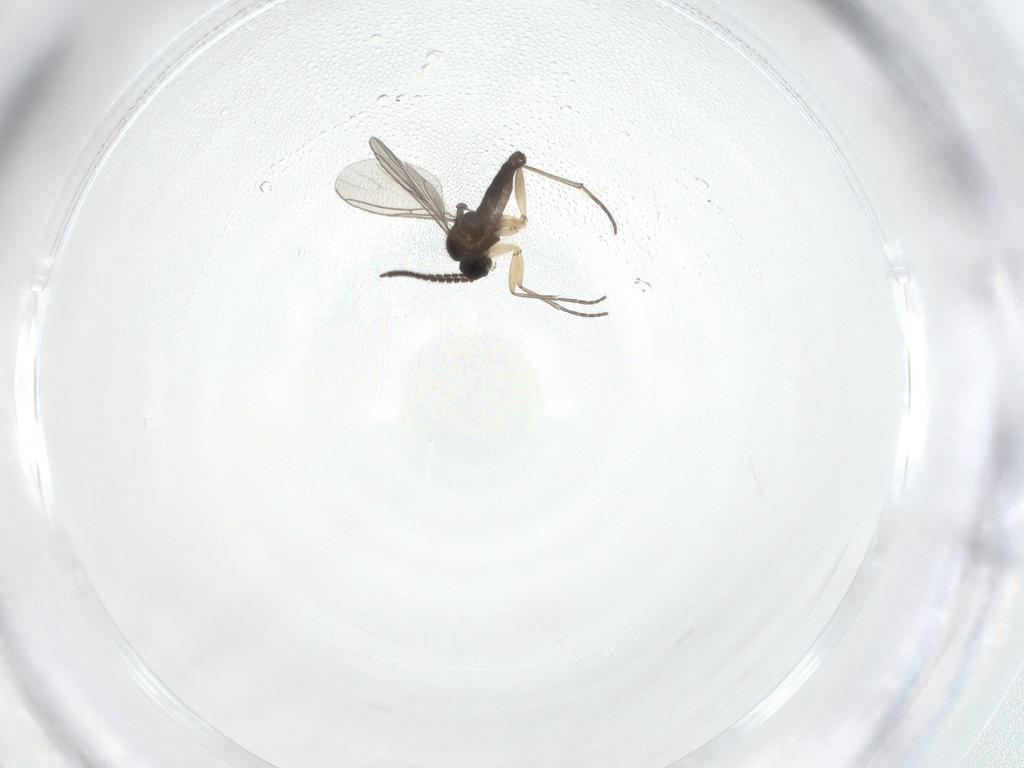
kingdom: Animalia
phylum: Arthropoda
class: Insecta
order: Diptera
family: Sciaridae
